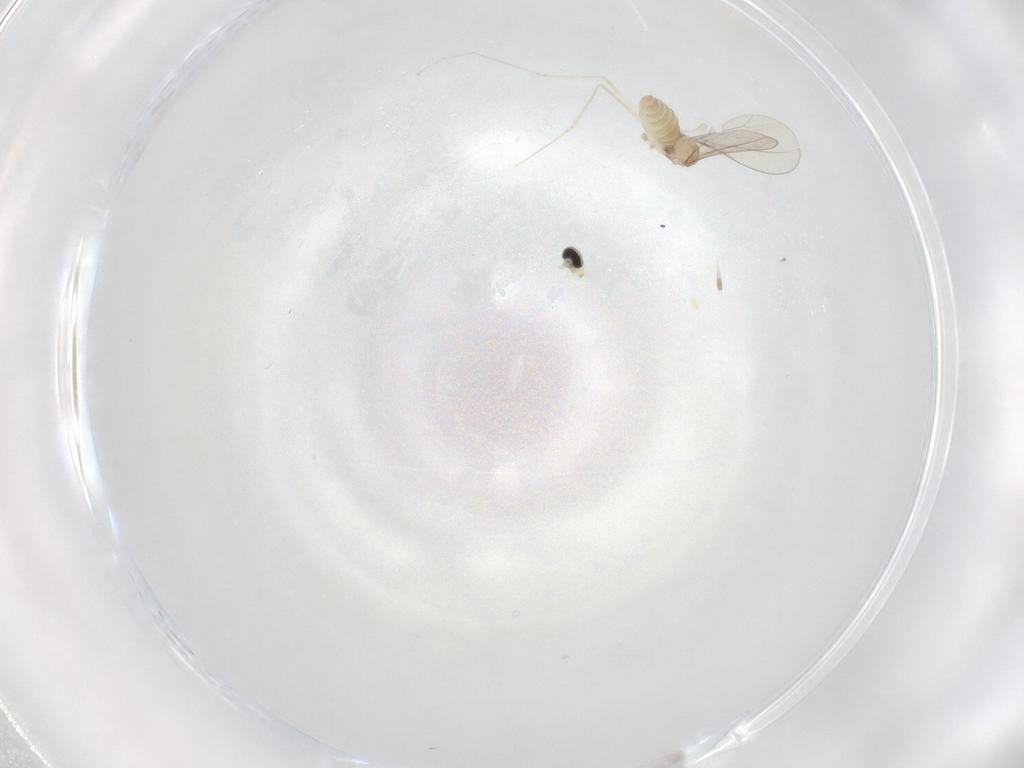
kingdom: Animalia
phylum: Arthropoda
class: Insecta
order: Diptera
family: Cecidomyiidae
